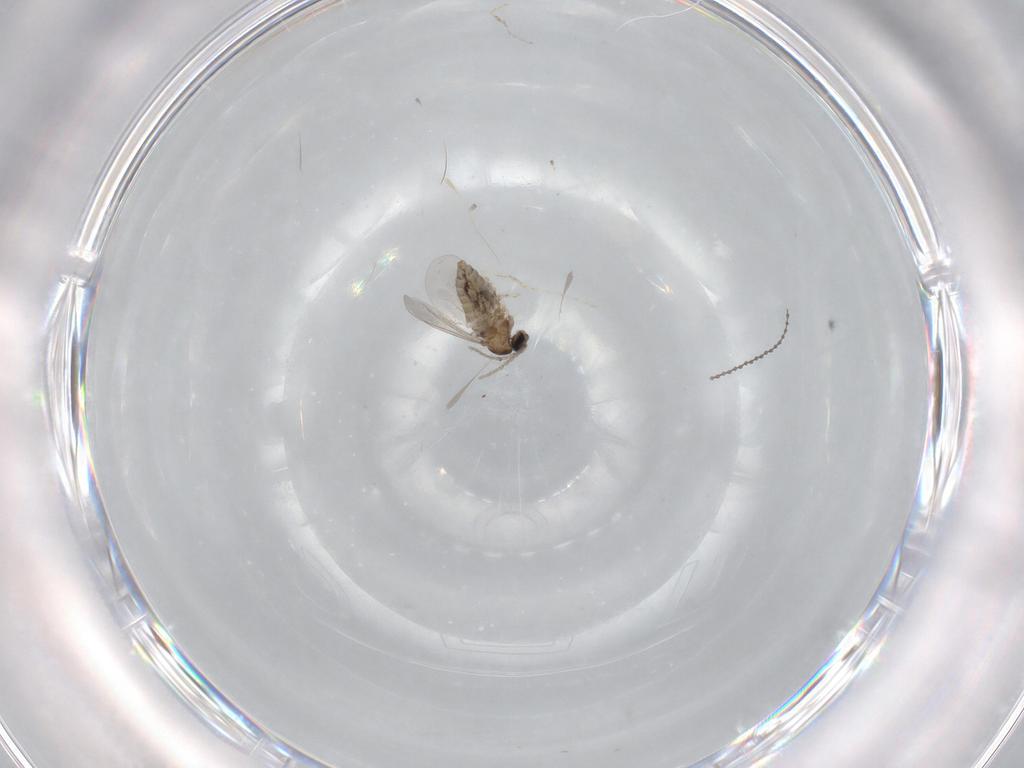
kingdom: Animalia
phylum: Arthropoda
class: Insecta
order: Diptera
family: Cecidomyiidae
